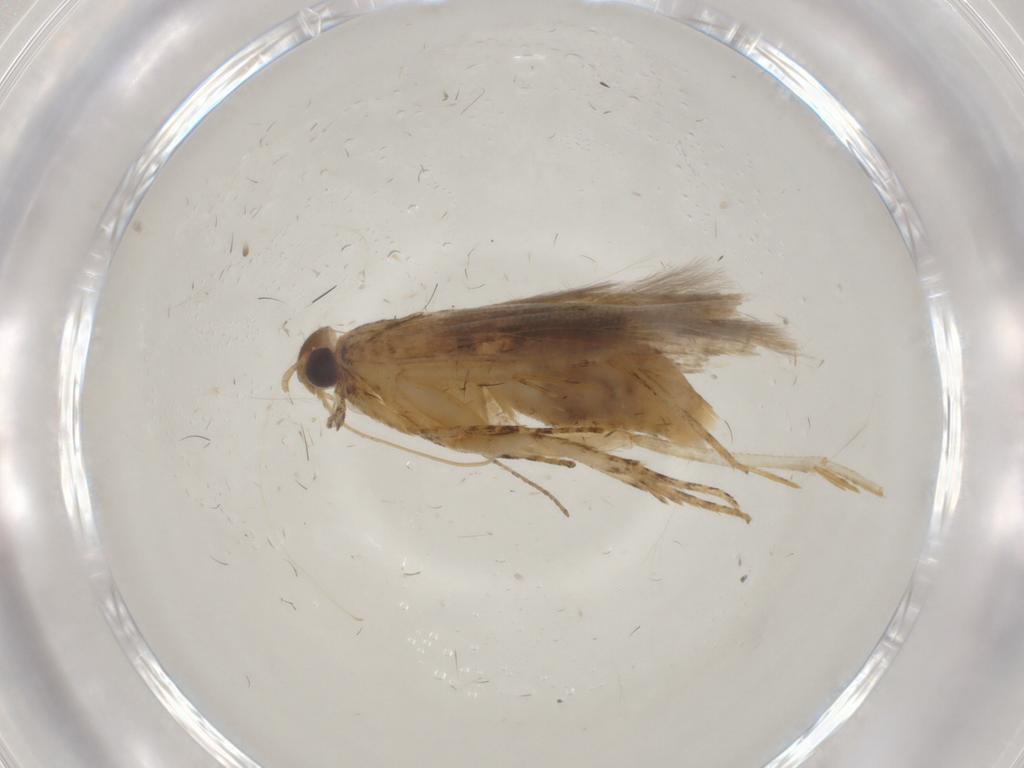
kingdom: Animalia
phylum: Arthropoda
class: Insecta
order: Lepidoptera
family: Gelechiidae
